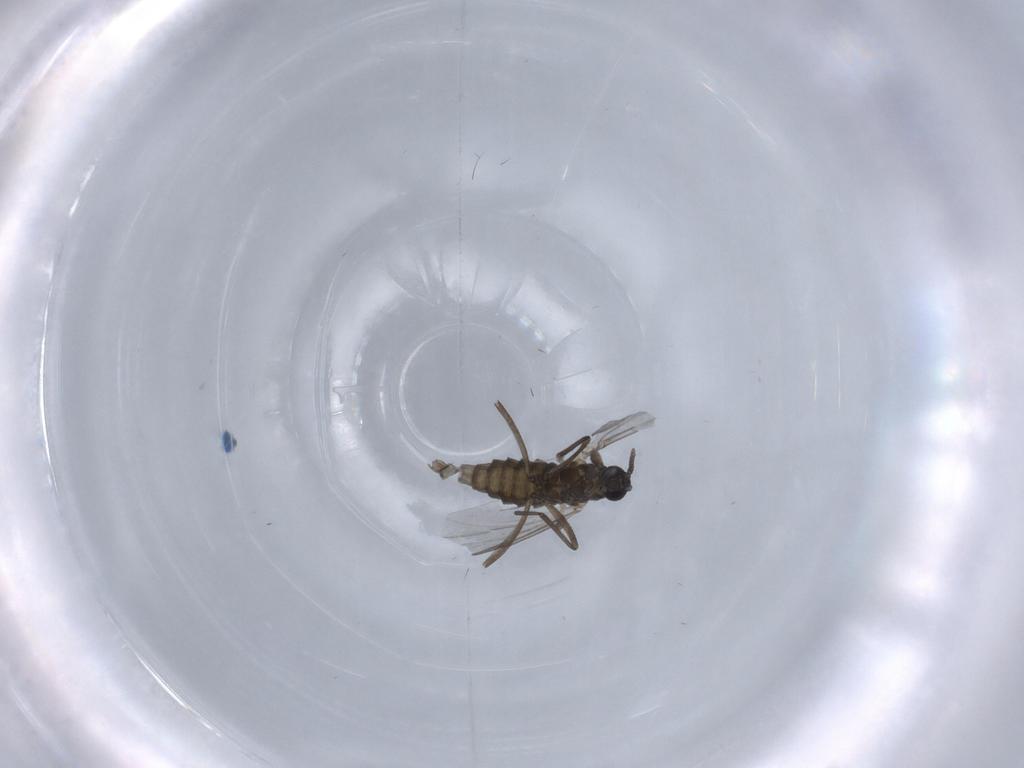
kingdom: Animalia
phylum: Arthropoda
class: Insecta
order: Diptera
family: Cecidomyiidae
